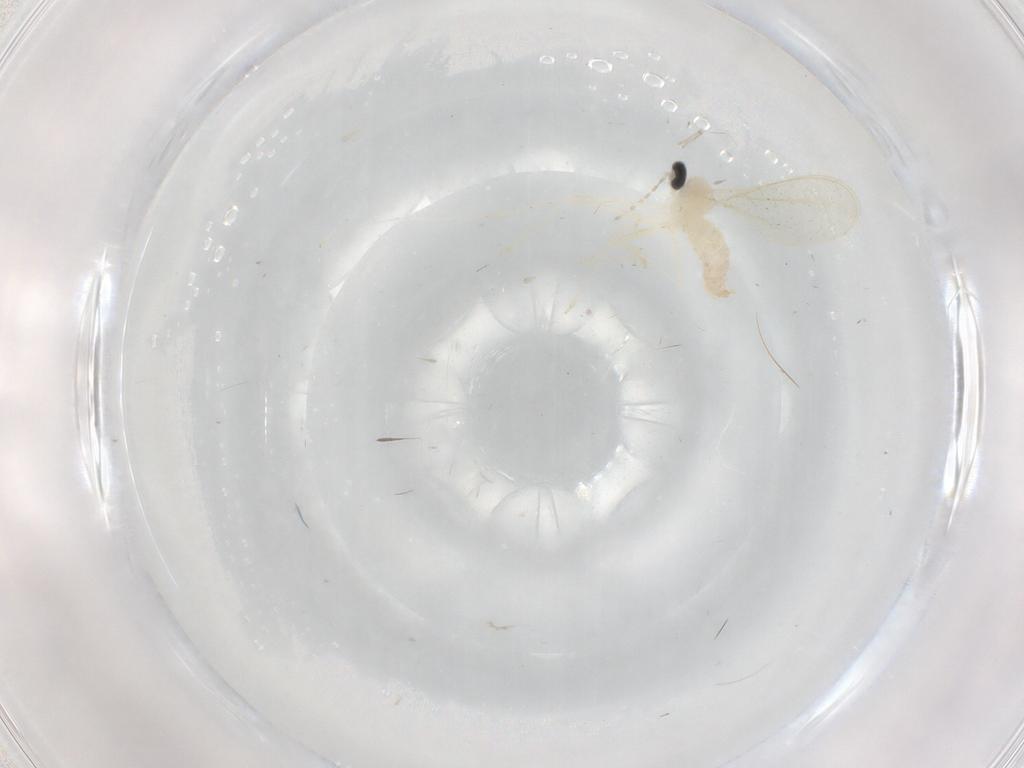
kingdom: Animalia
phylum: Arthropoda
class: Insecta
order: Diptera
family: Cecidomyiidae
